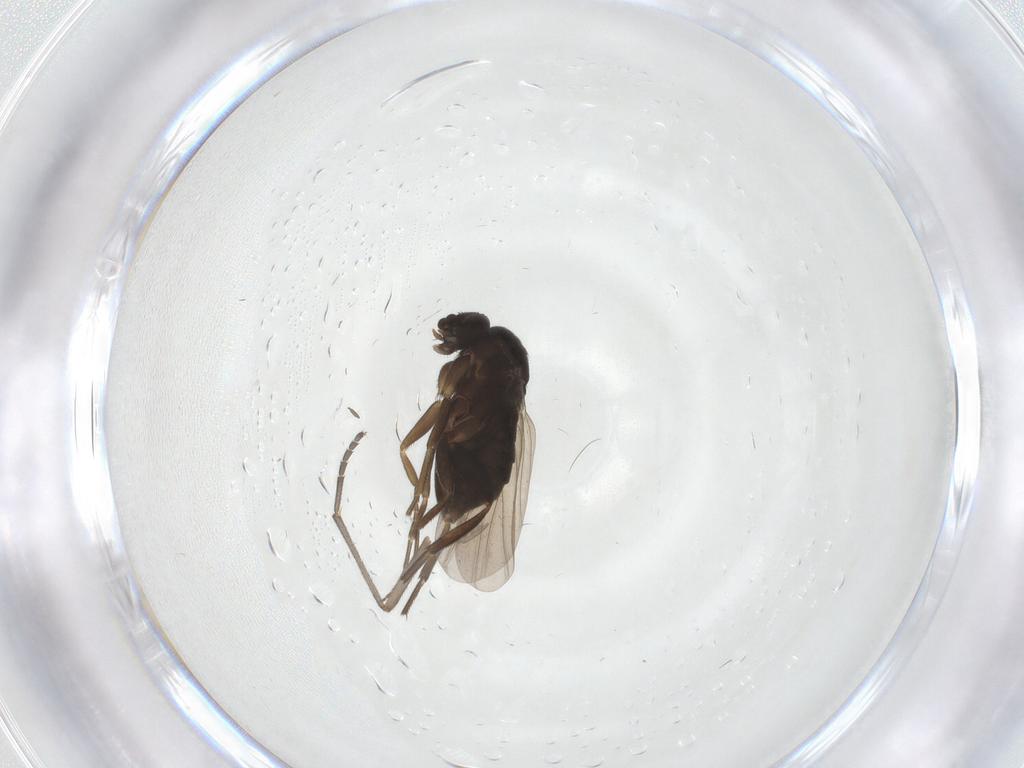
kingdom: Animalia
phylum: Arthropoda
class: Insecta
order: Diptera
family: Phoridae
